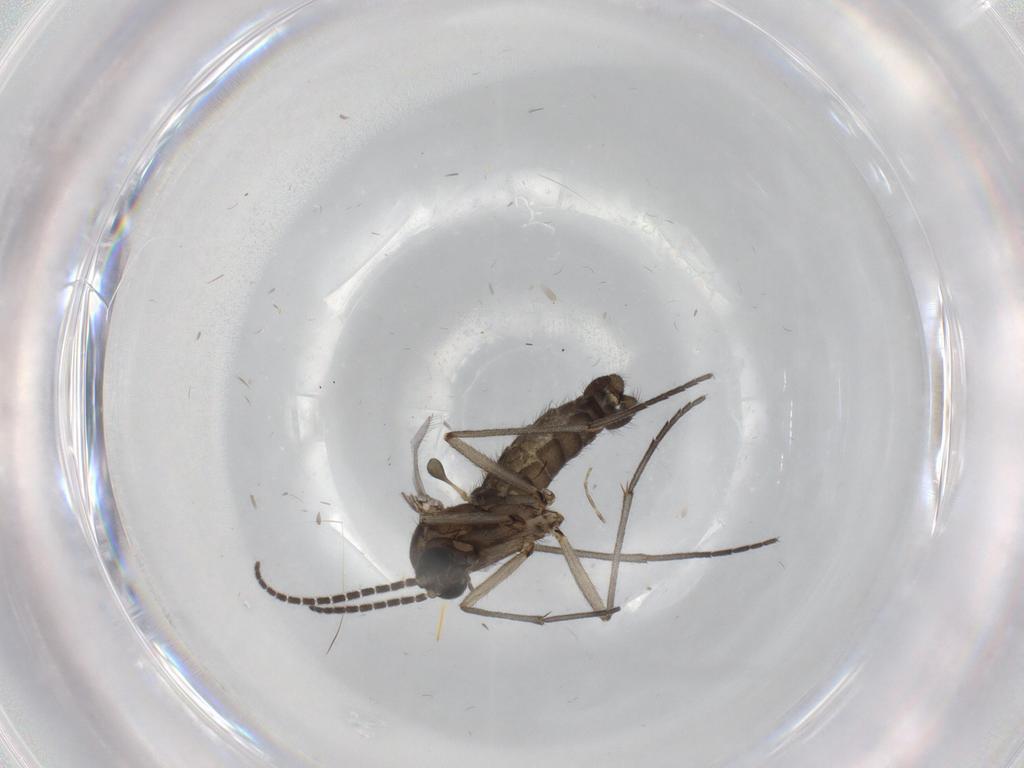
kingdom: Animalia
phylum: Arthropoda
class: Insecta
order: Diptera
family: Sciaridae
